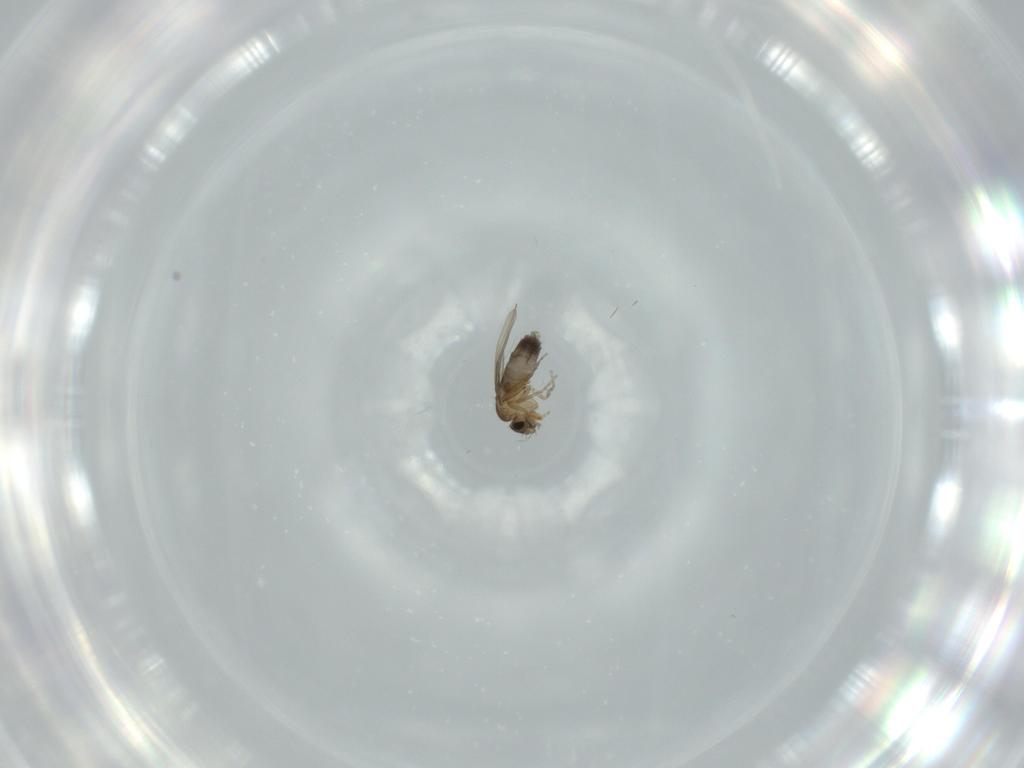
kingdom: Animalia
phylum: Arthropoda
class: Insecta
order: Diptera
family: Phoridae
